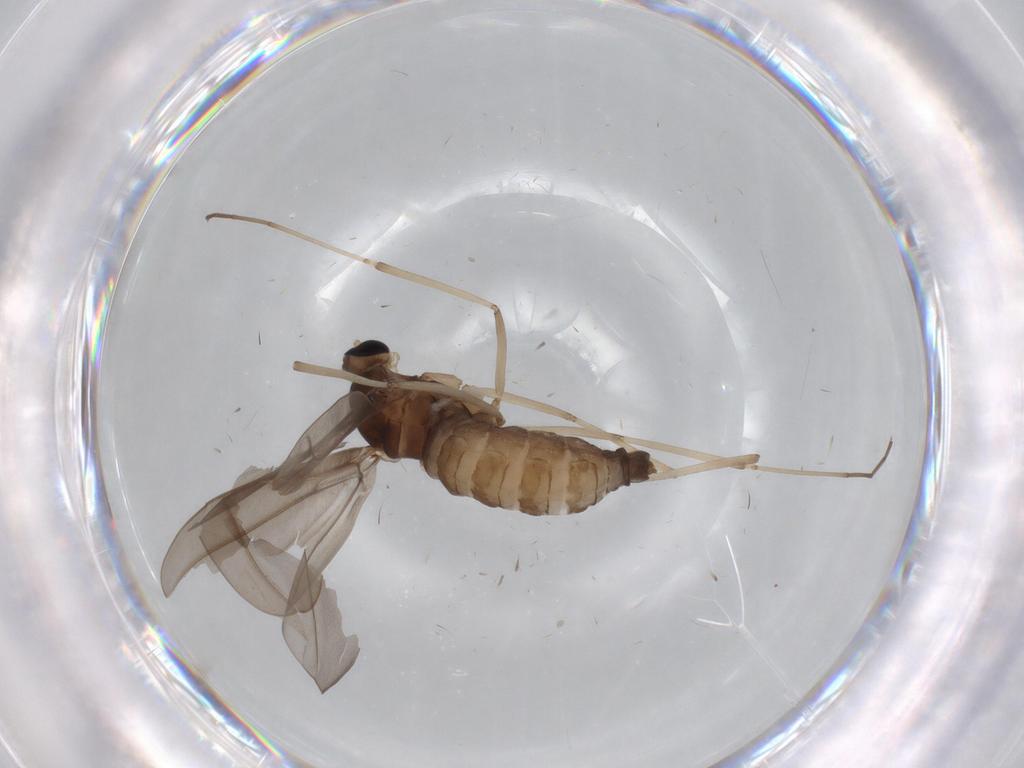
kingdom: Animalia
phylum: Arthropoda
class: Insecta
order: Diptera
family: Cecidomyiidae
